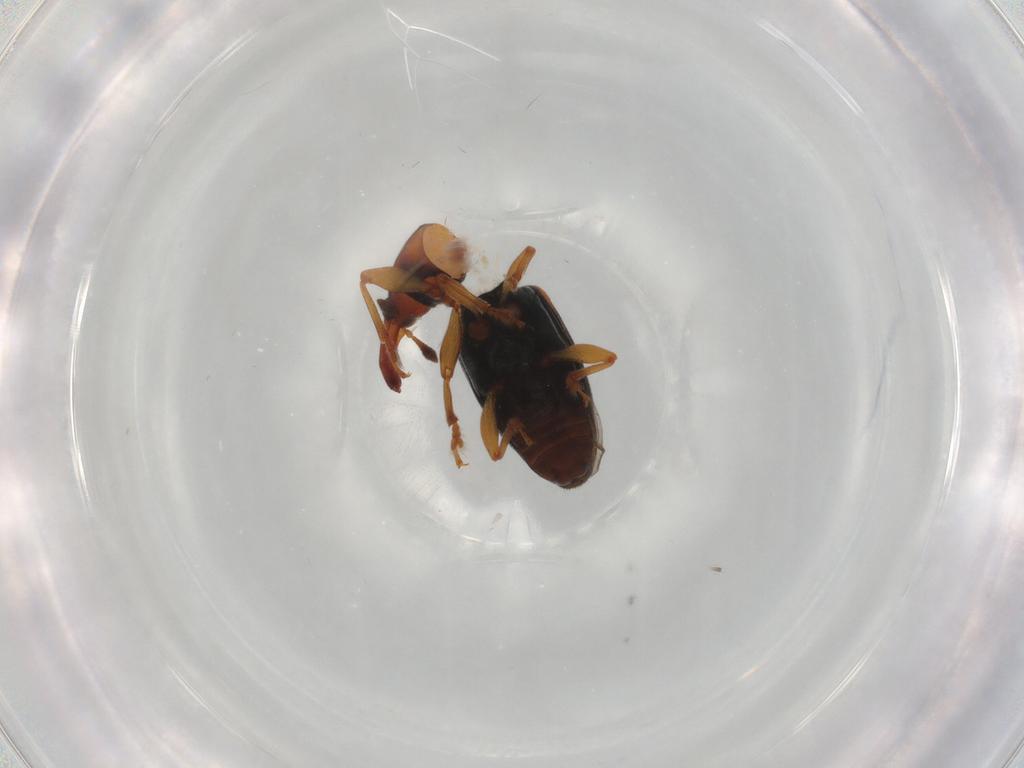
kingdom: Animalia
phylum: Arthropoda
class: Insecta
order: Coleoptera
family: Curculionidae
